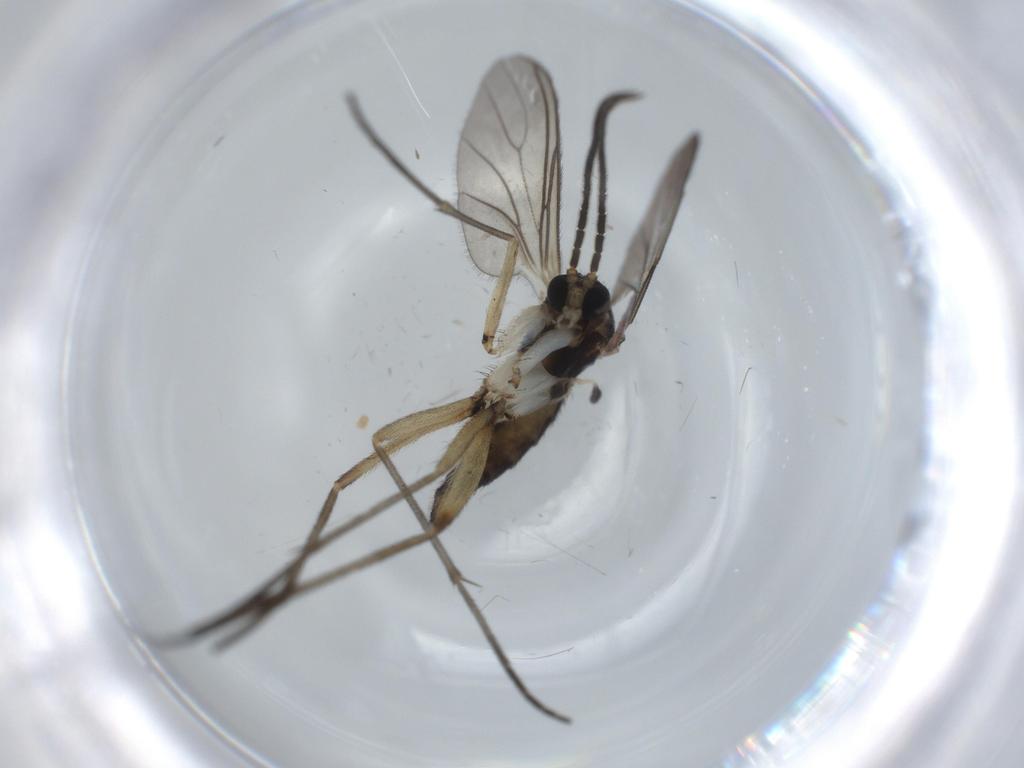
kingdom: Animalia
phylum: Arthropoda
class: Insecta
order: Diptera
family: Sciaridae
